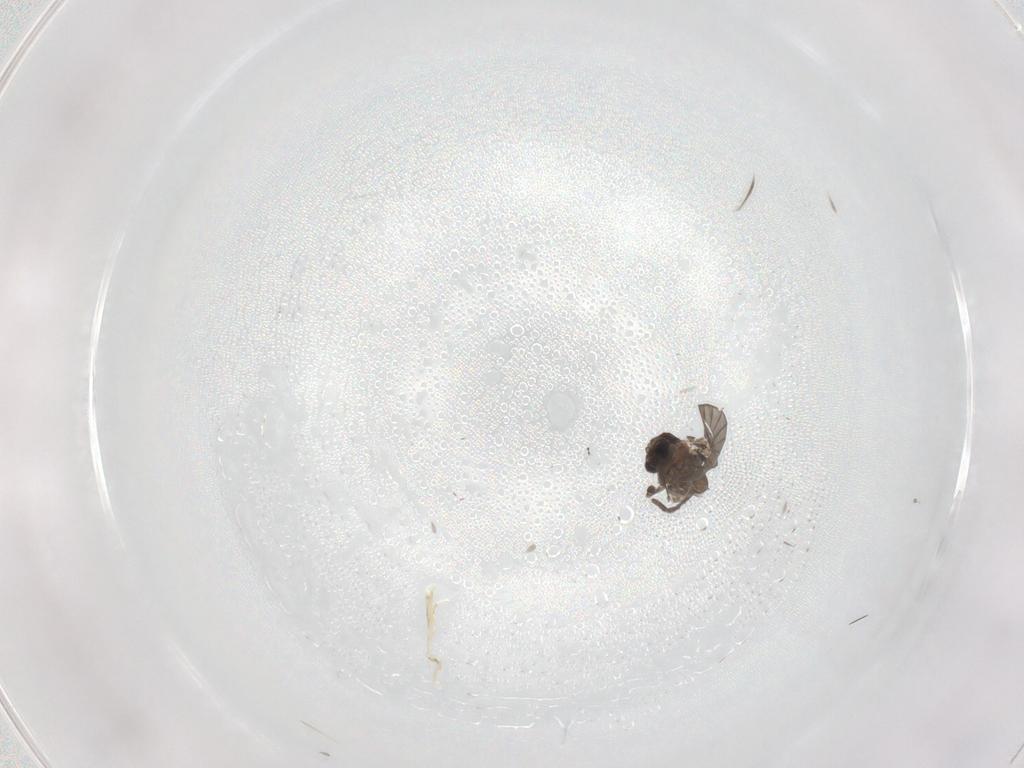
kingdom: Animalia
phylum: Arthropoda
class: Insecta
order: Diptera
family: Psychodidae
